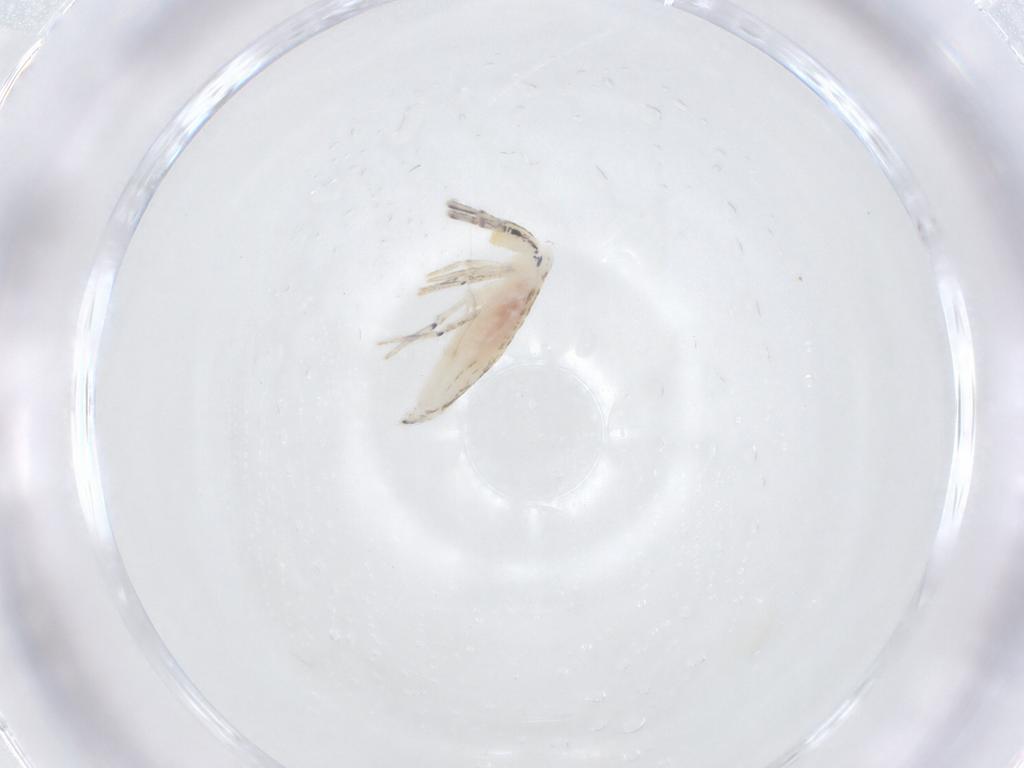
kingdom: Animalia
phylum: Arthropoda
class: Collembola
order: Entomobryomorpha
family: Entomobryidae
